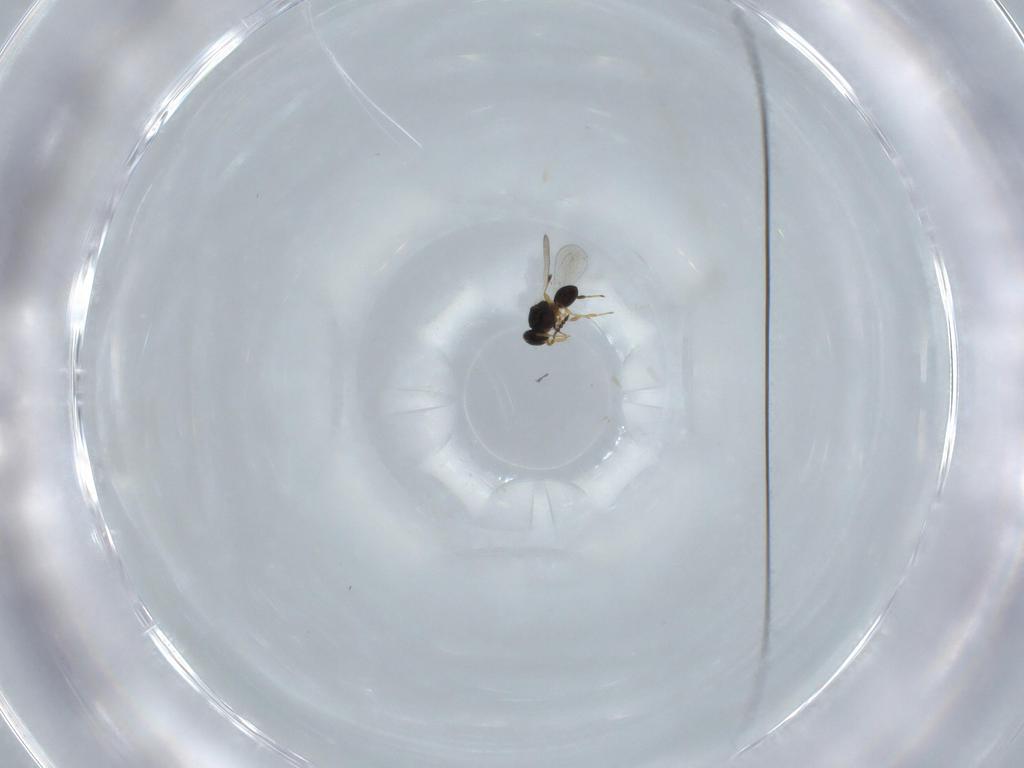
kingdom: Animalia
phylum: Arthropoda
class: Insecta
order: Hymenoptera
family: Platygastridae
